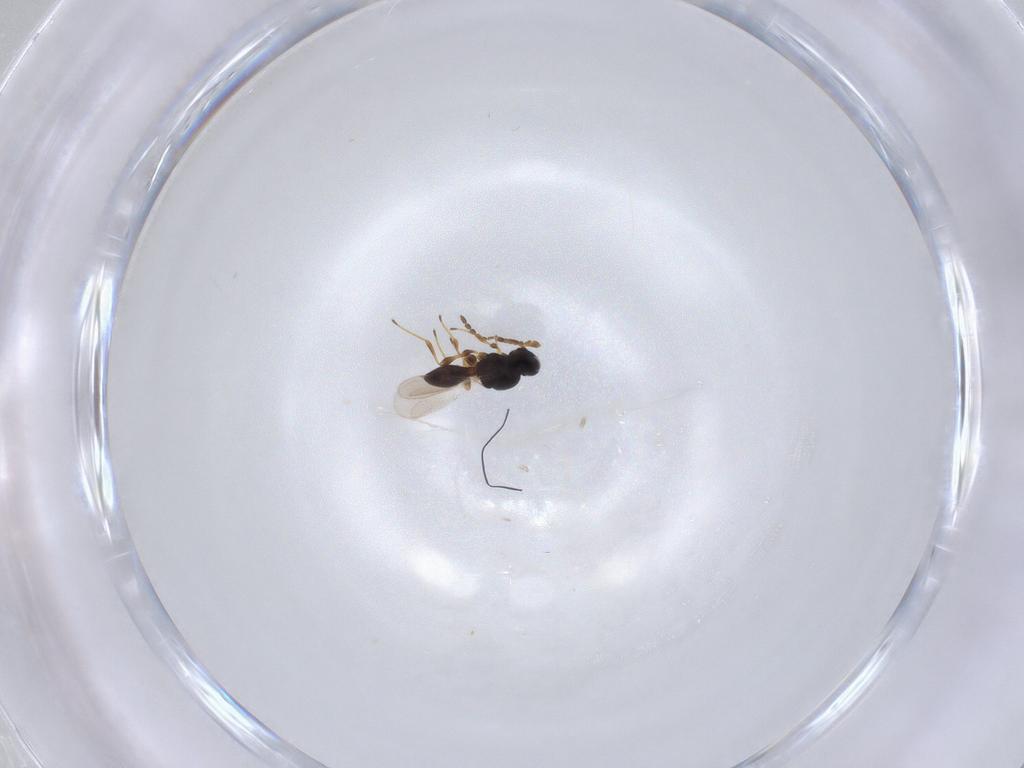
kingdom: Animalia
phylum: Arthropoda
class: Insecta
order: Hymenoptera
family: Platygastridae
